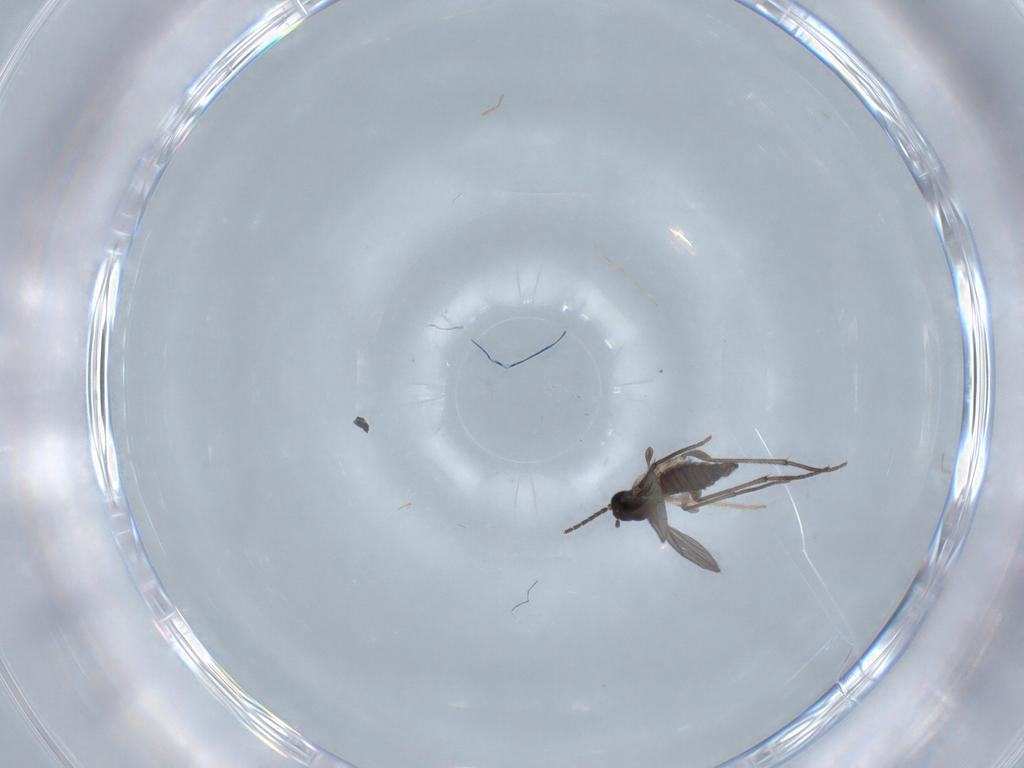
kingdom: Animalia
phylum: Arthropoda
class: Insecta
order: Diptera
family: Sciaridae
